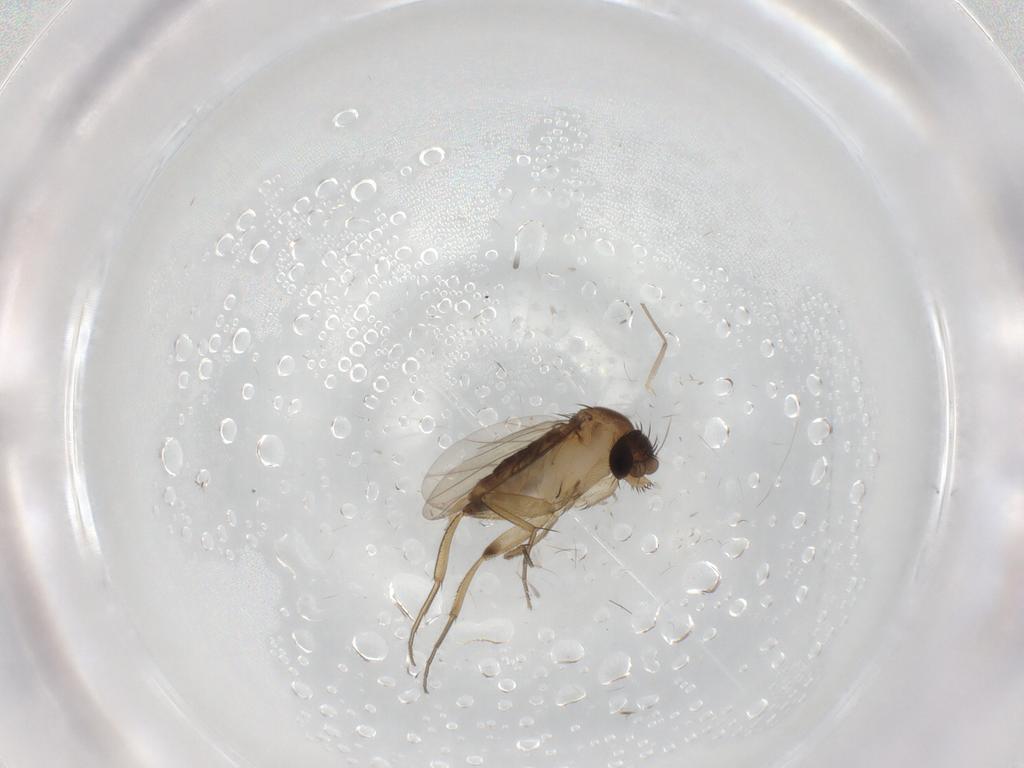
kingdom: Animalia
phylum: Arthropoda
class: Insecta
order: Diptera
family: Phoridae
